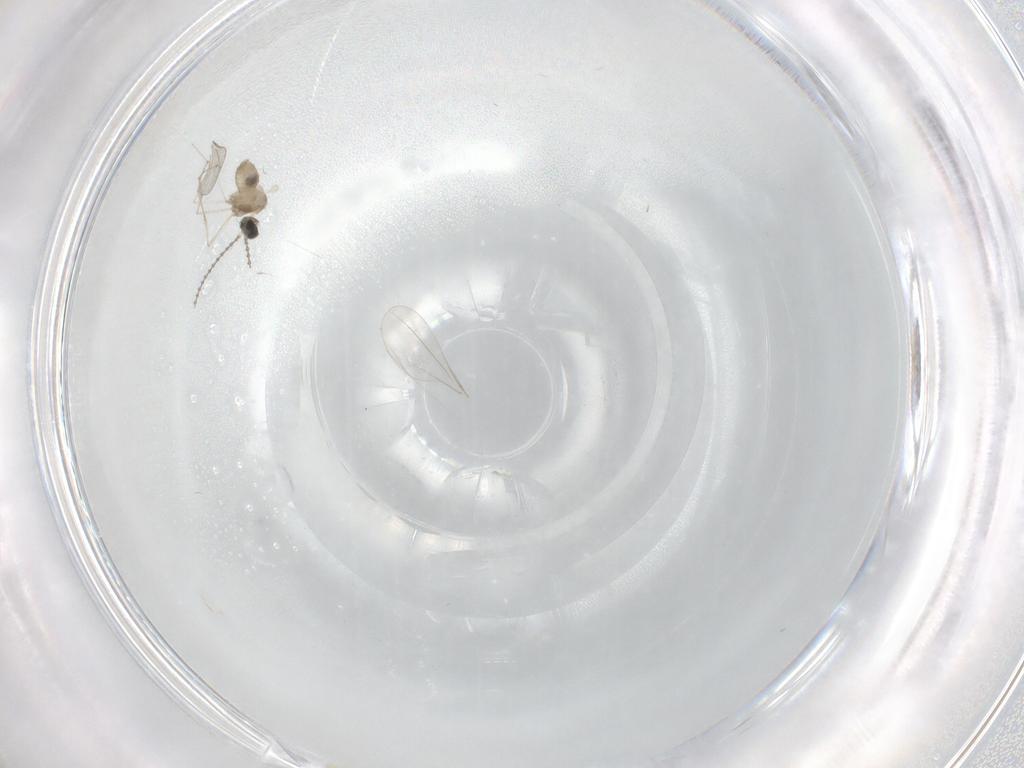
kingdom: Animalia
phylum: Arthropoda
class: Insecta
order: Diptera
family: Cecidomyiidae
